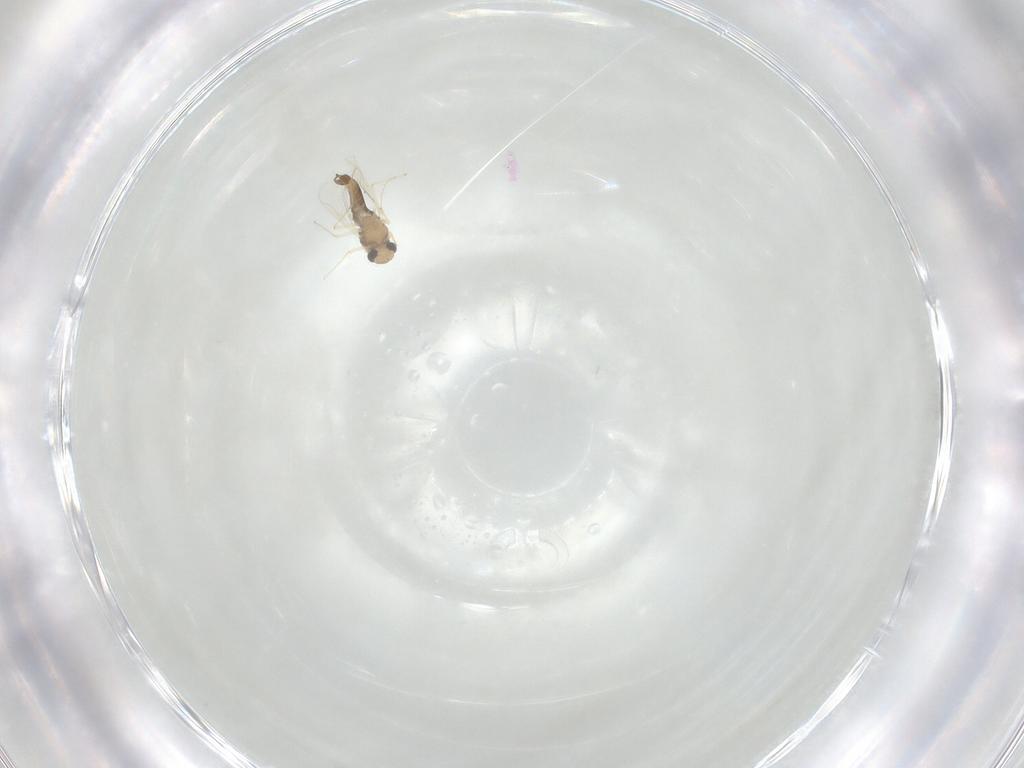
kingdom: Animalia
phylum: Arthropoda
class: Insecta
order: Diptera
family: Chironomidae
